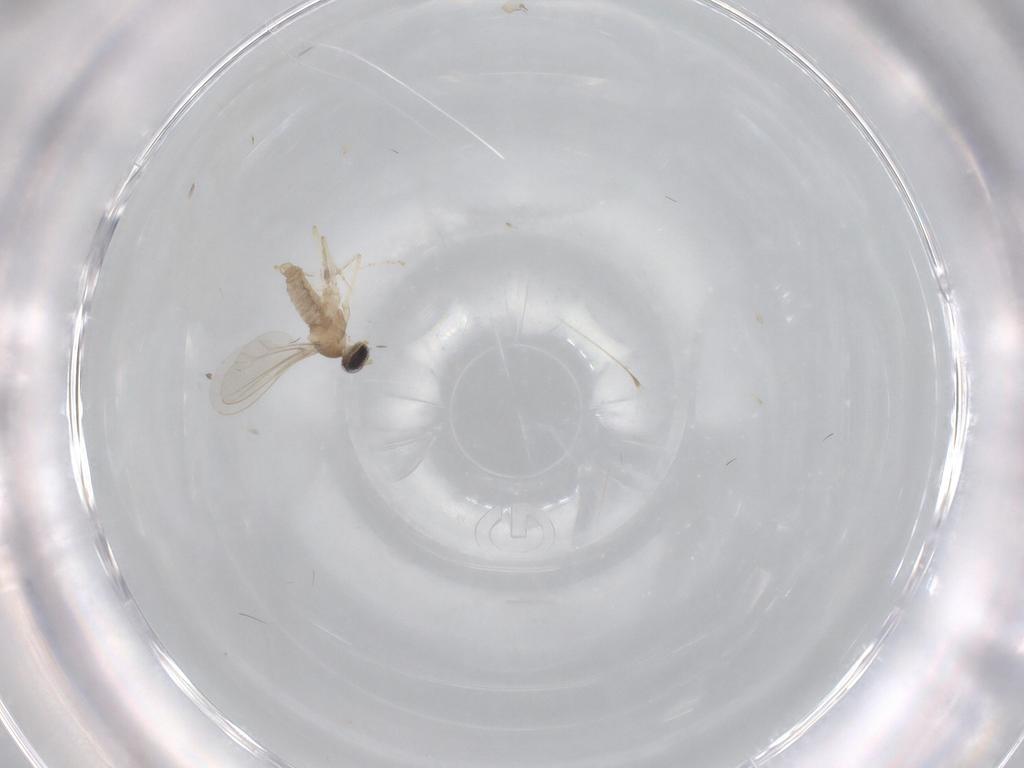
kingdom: Animalia
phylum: Arthropoda
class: Insecta
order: Diptera
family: Cecidomyiidae
